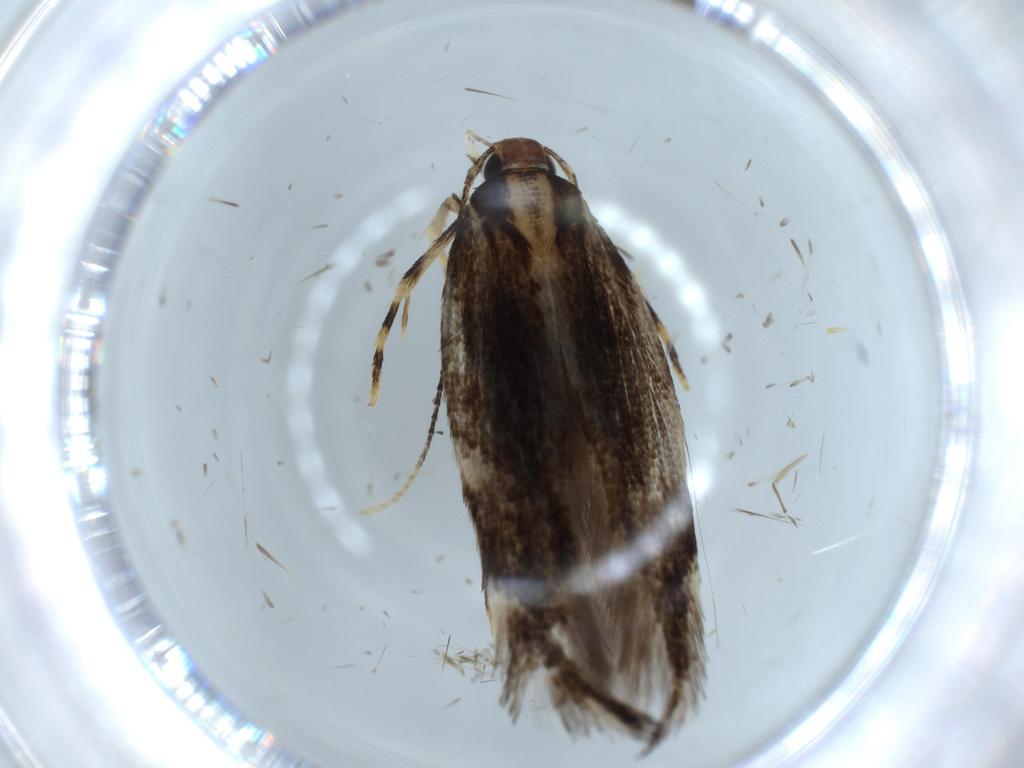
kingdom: Animalia
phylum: Arthropoda
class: Insecta
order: Lepidoptera
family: Cosmopterigidae
